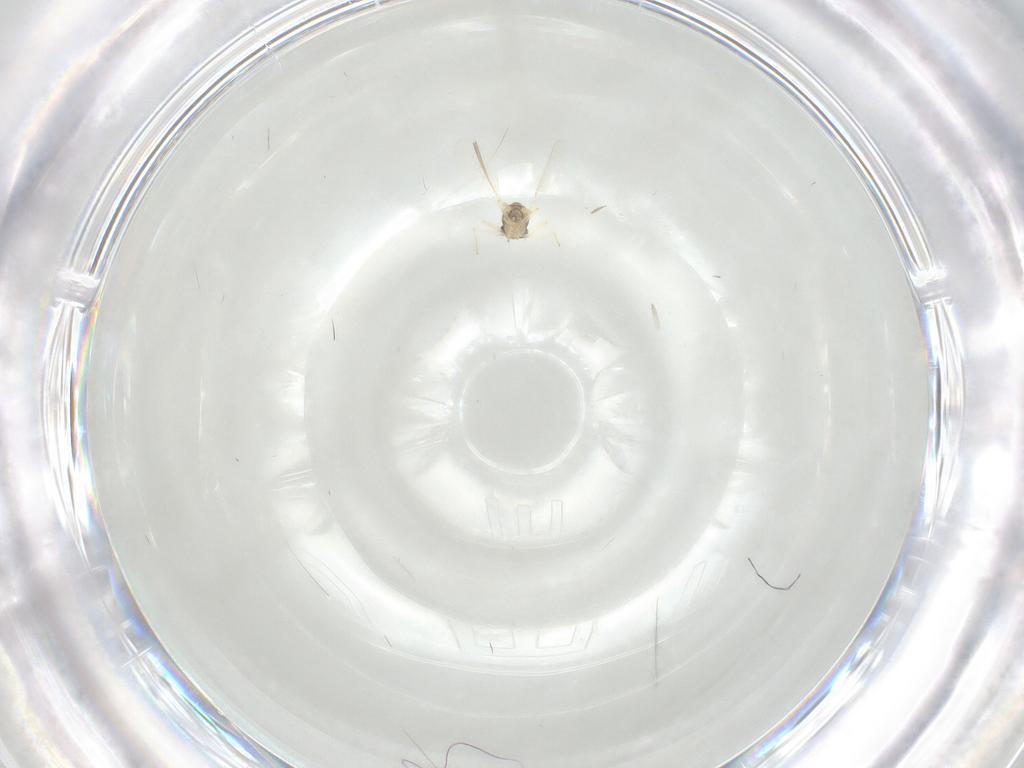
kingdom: Animalia
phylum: Arthropoda
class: Insecta
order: Diptera
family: Chironomidae
